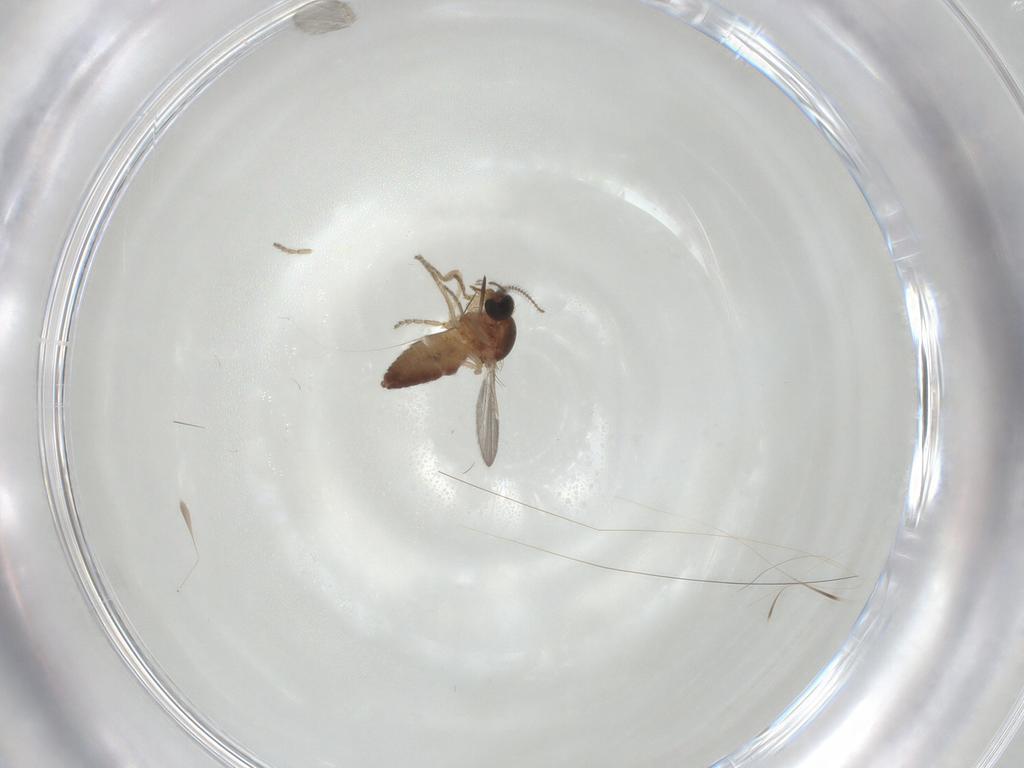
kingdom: Animalia
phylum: Arthropoda
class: Insecta
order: Diptera
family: Ceratopogonidae
